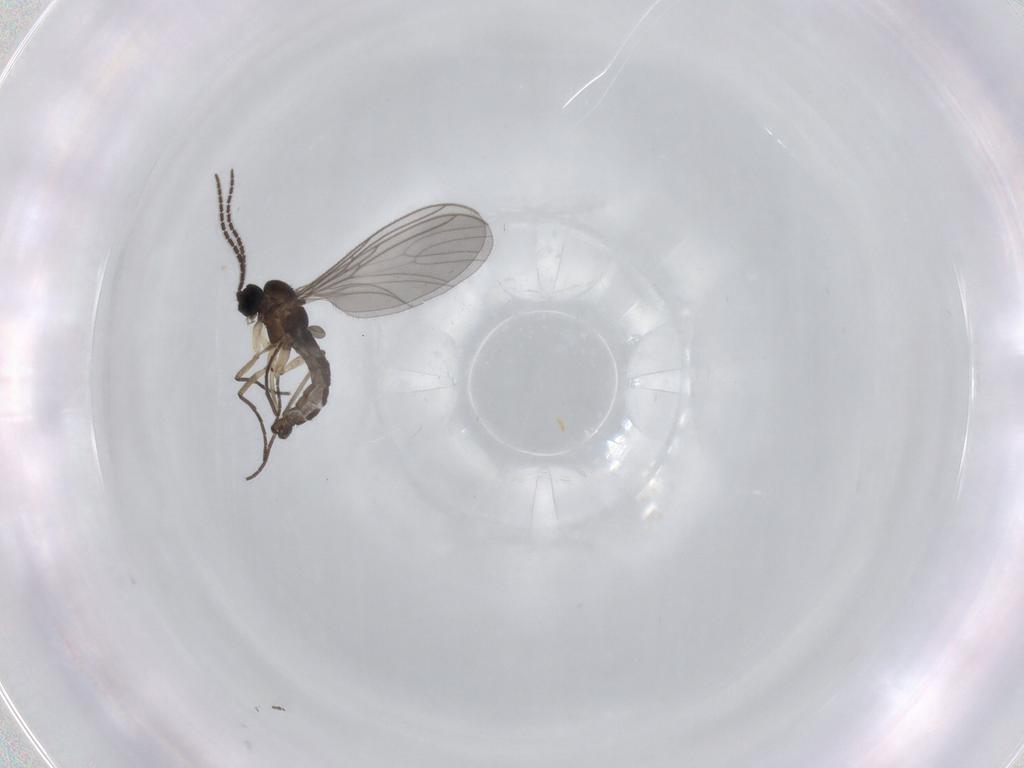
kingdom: Animalia
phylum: Arthropoda
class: Insecta
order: Diptera
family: Sciaridae
